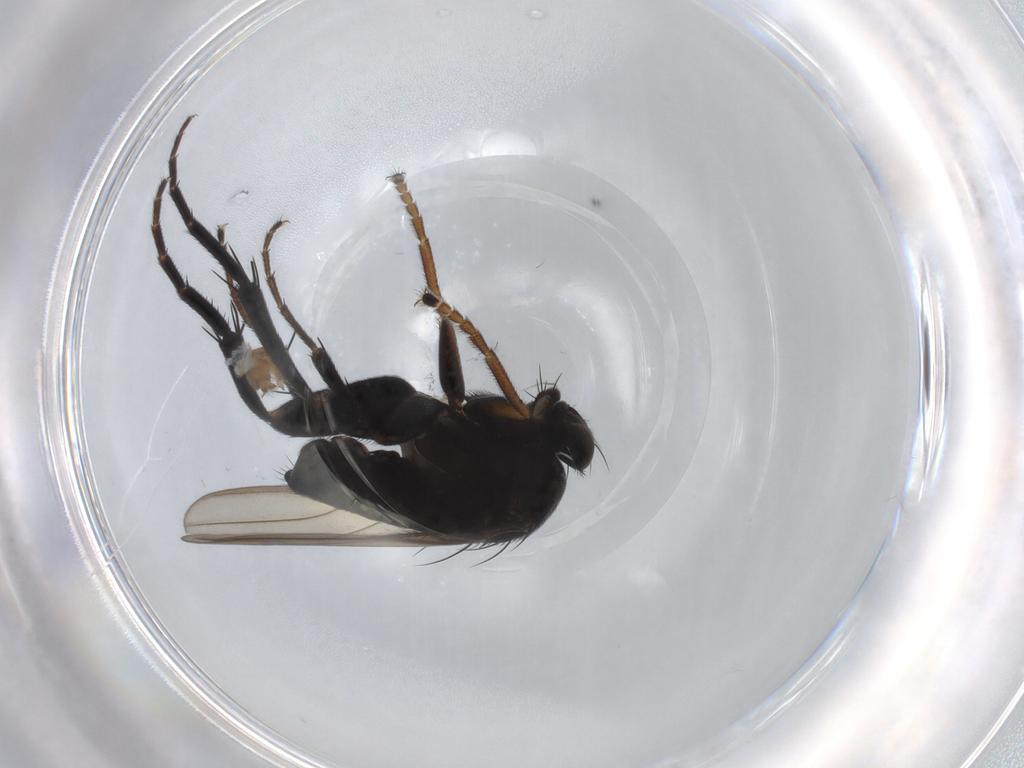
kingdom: Animalia
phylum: Arthropoda
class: Insecta
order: Diptera
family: Phoridae
